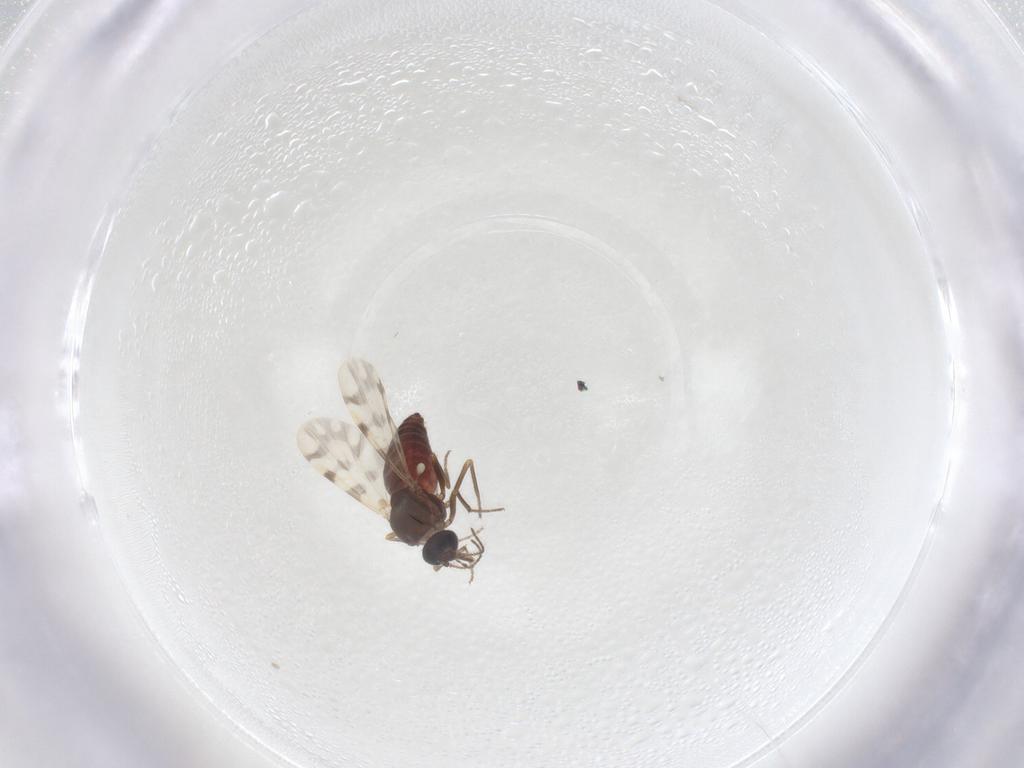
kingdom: Animalia
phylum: Arthropoda
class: Insecta
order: Diptera
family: Ceratopogonidae
